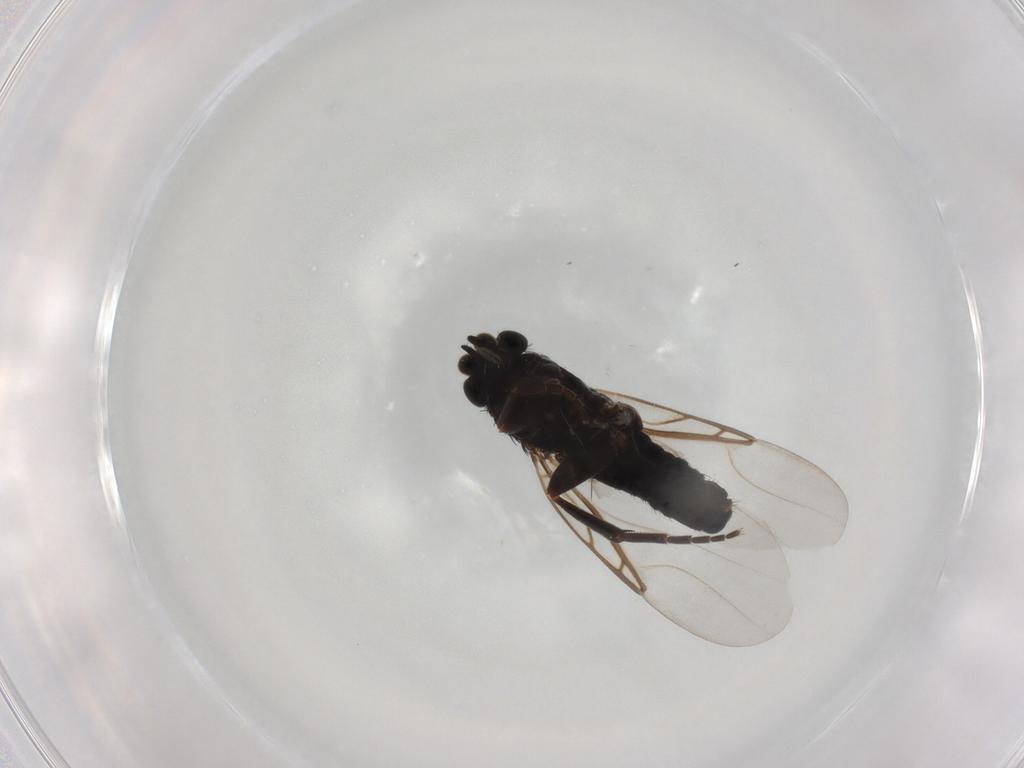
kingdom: Animalia
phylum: Arthropoda
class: Insecta
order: Diptera
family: Phoridae
